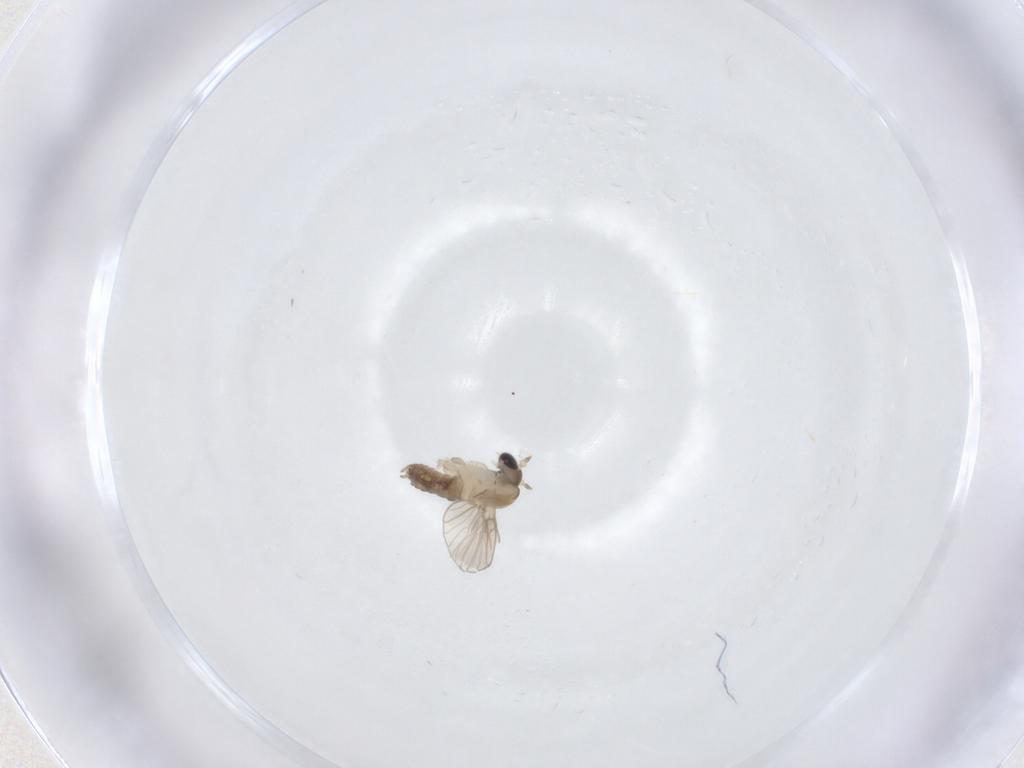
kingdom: Animalia
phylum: Arthropoda
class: Insecta
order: Diptera
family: Psychodidae
